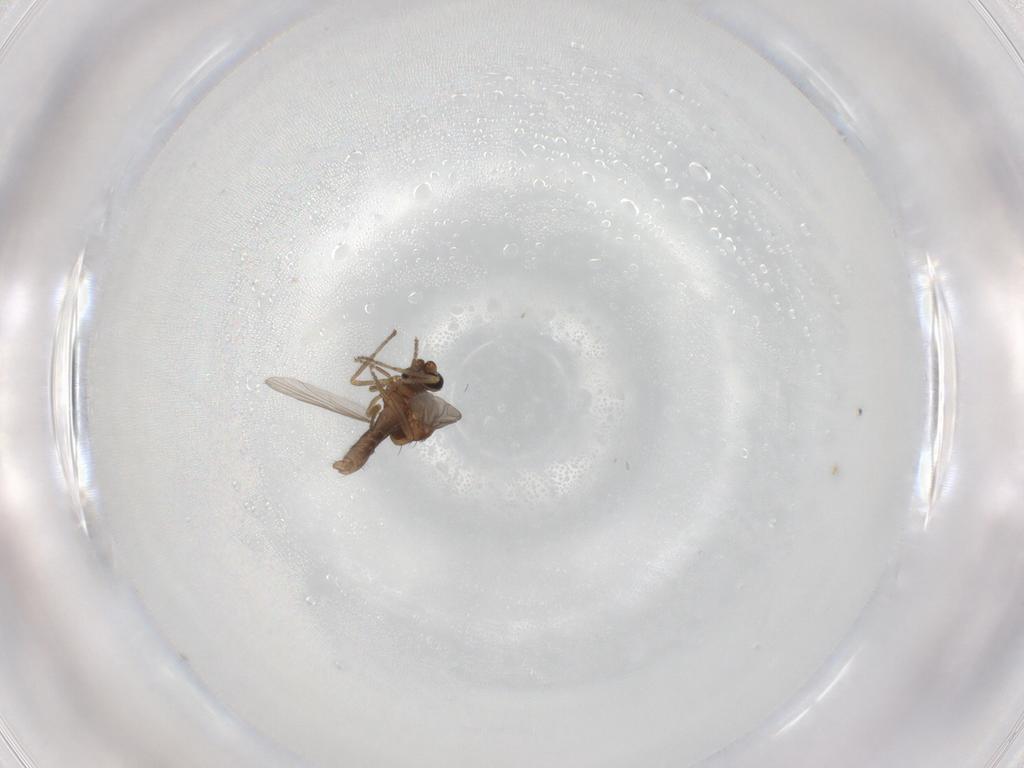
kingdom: Animalia
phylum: Arthropoda
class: Insecta
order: Diptera
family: Ceratopogonidae
